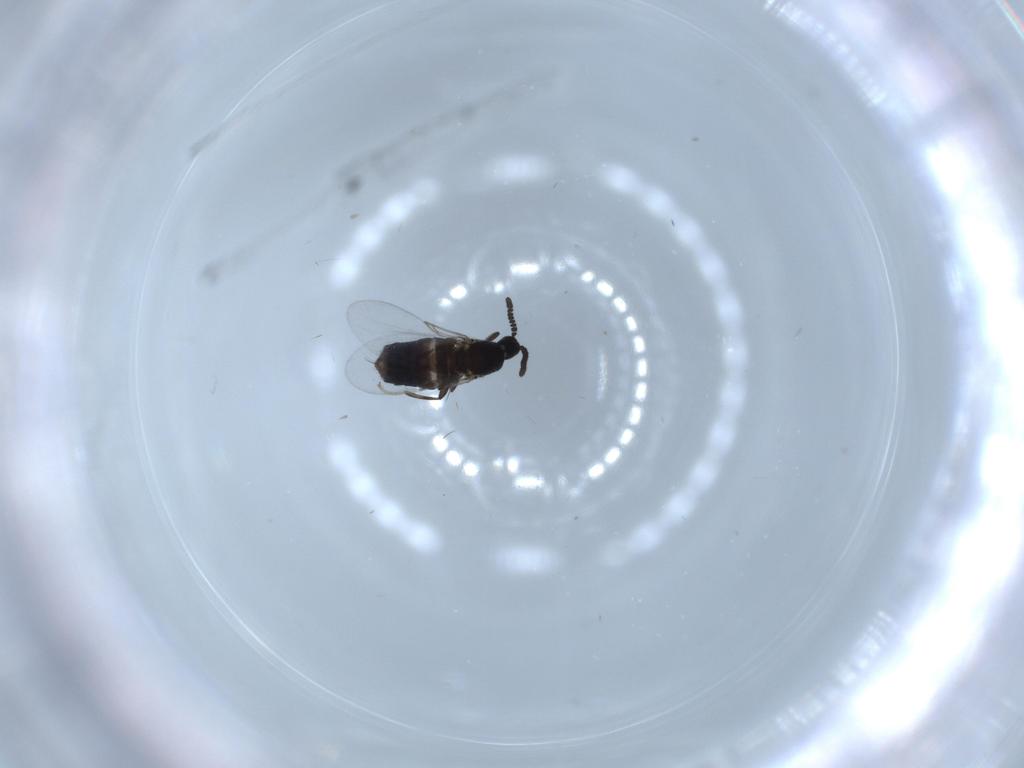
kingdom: Animalia
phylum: Arthropoda
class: Insecta
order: Diptera
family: Scatopsidae
